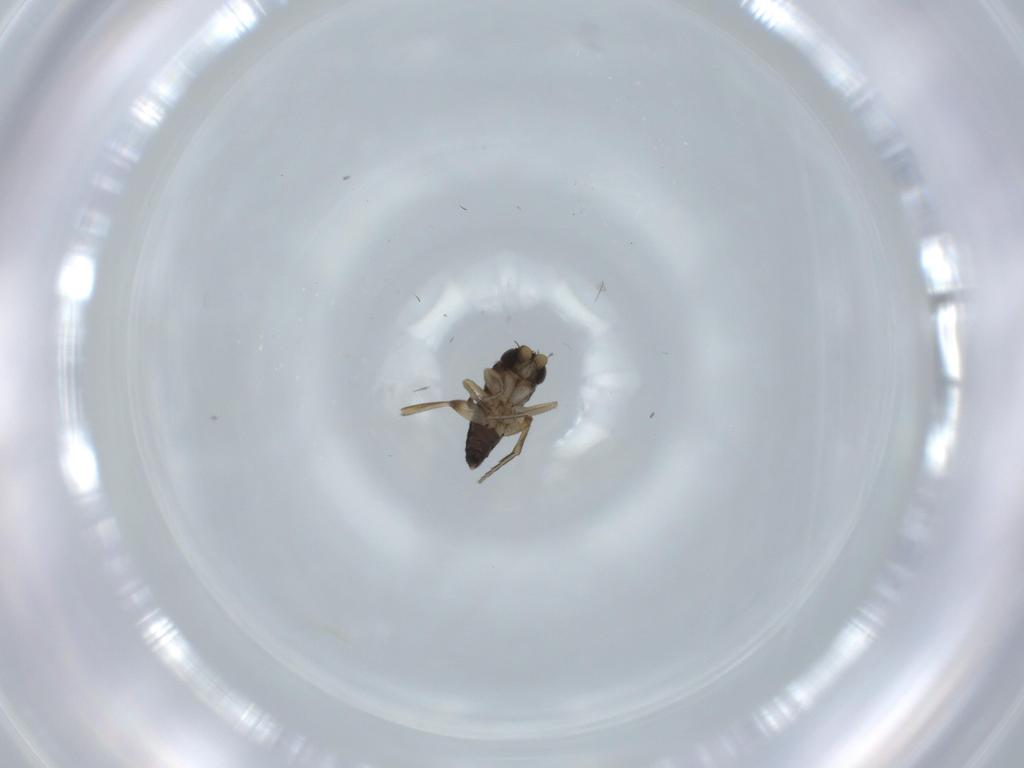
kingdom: Animalia
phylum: Arthropoda
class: Insecta
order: Diptera
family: Phoridae
